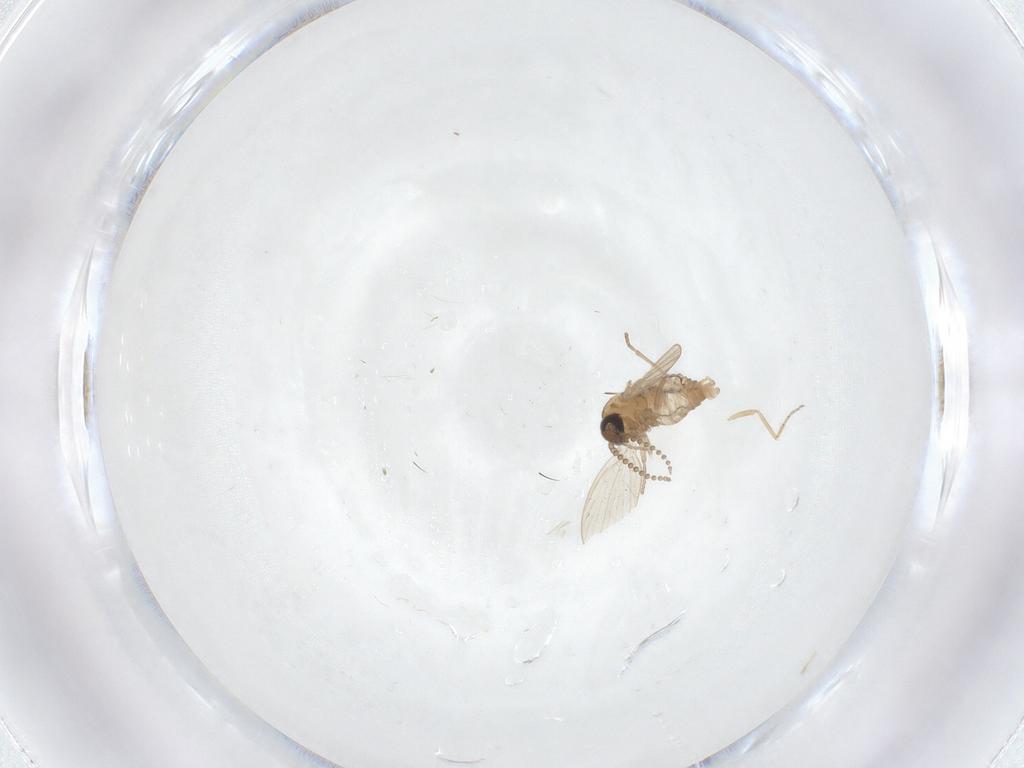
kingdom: Animalia
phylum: Arthropoda
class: Insecta
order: Diptera
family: Psychodidae
